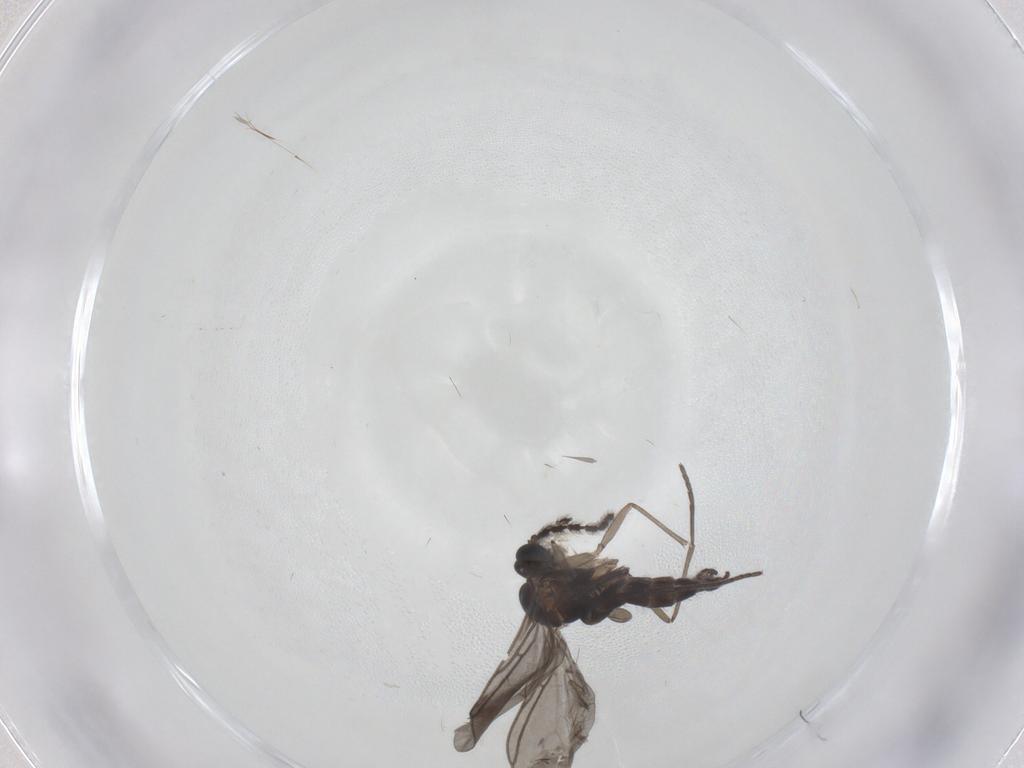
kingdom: Animalia
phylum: Arthropoda
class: Insecta
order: Diptera
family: Sciaridae
